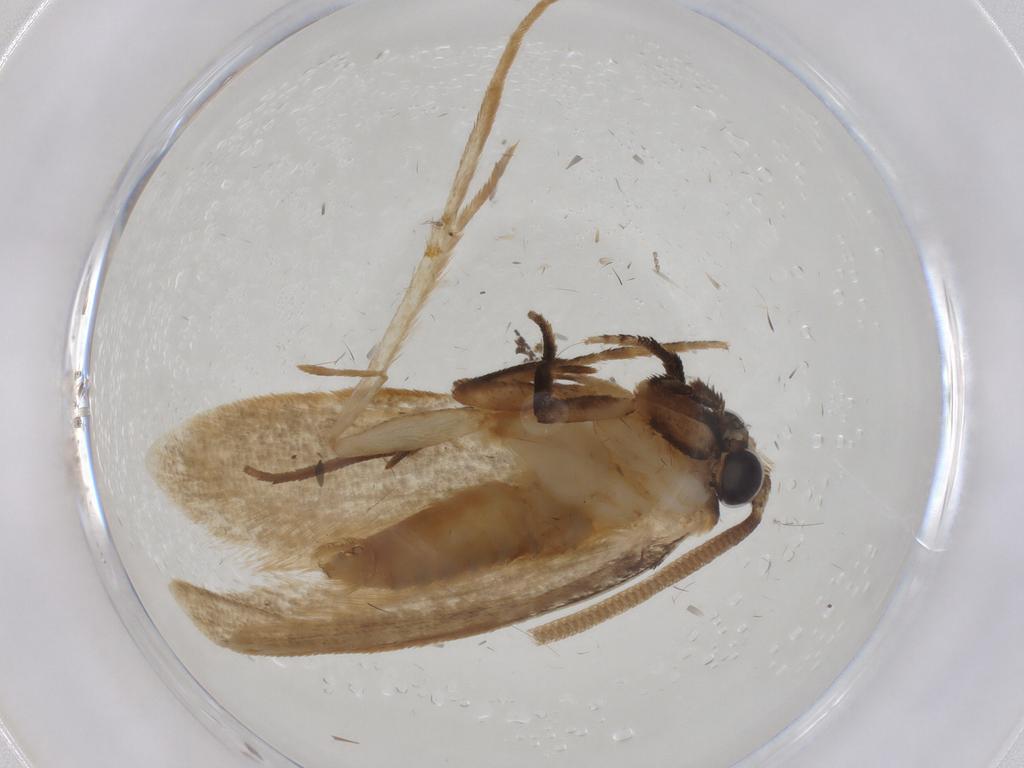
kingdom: Animalia
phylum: Arthropoda
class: Insecta
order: Lepidoptera
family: Tineidae
